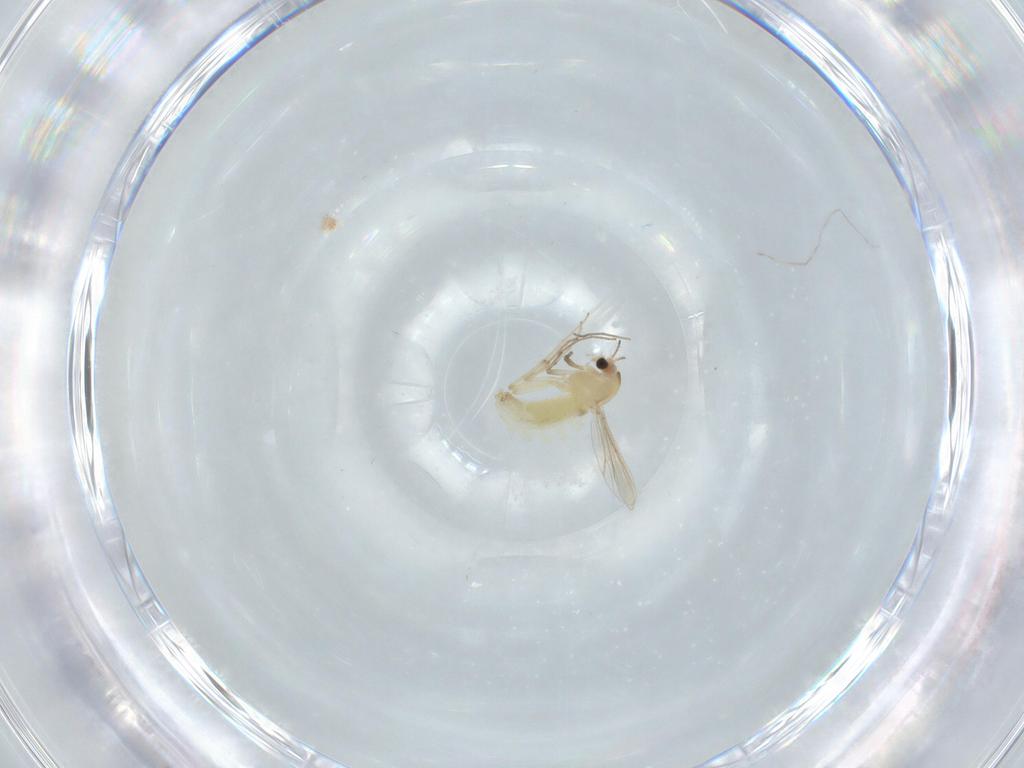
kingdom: Animalia
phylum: Arthropoda
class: Insecta
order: Diptera
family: Chironomidae
